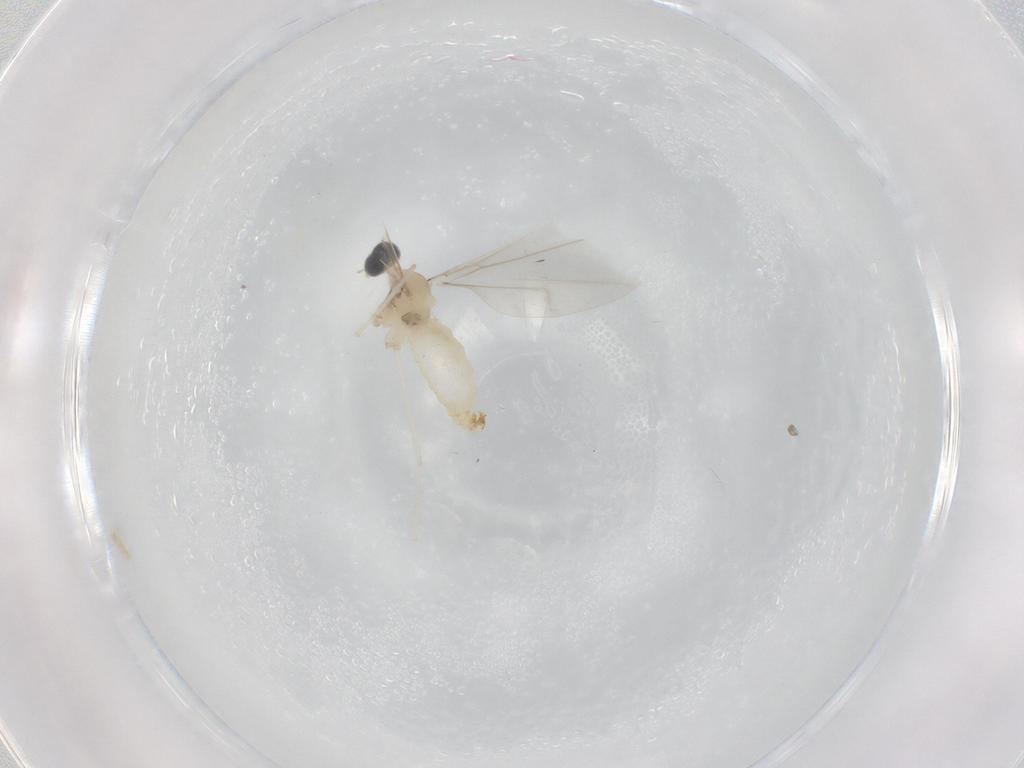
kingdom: Animalia
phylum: Arthropoda
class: Insecta
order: Diptera
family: Cecidomyiidae
